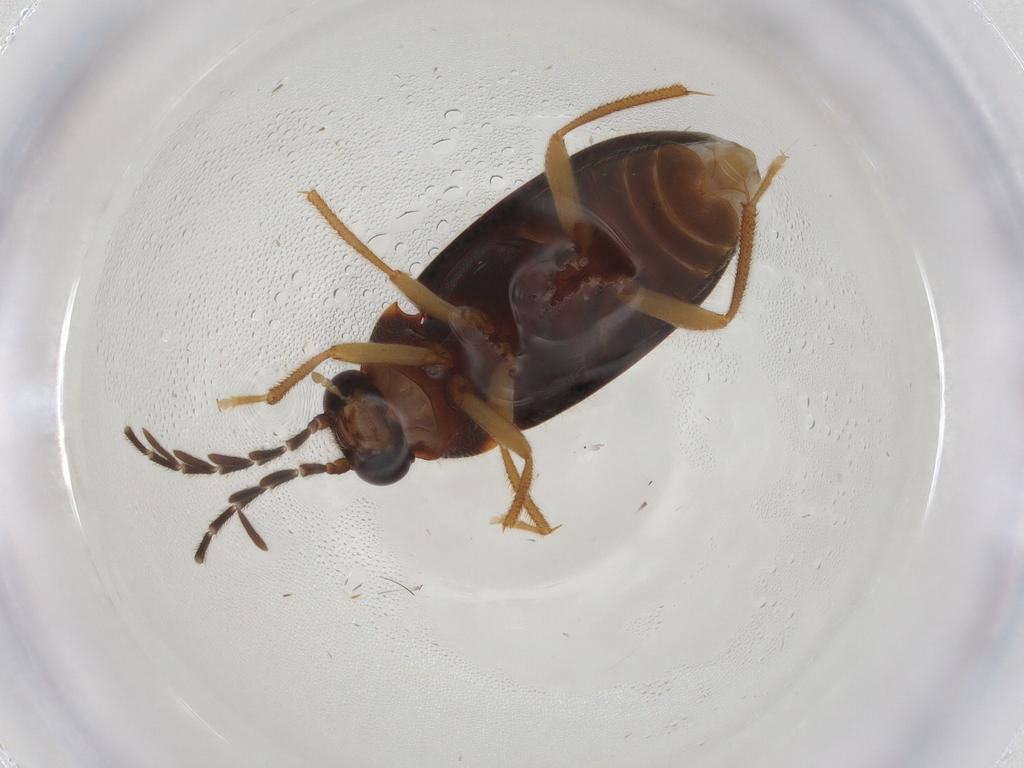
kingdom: Animalia
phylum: Arthropoda
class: Insecta
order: Coleoptera
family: Ptilodactylidae
